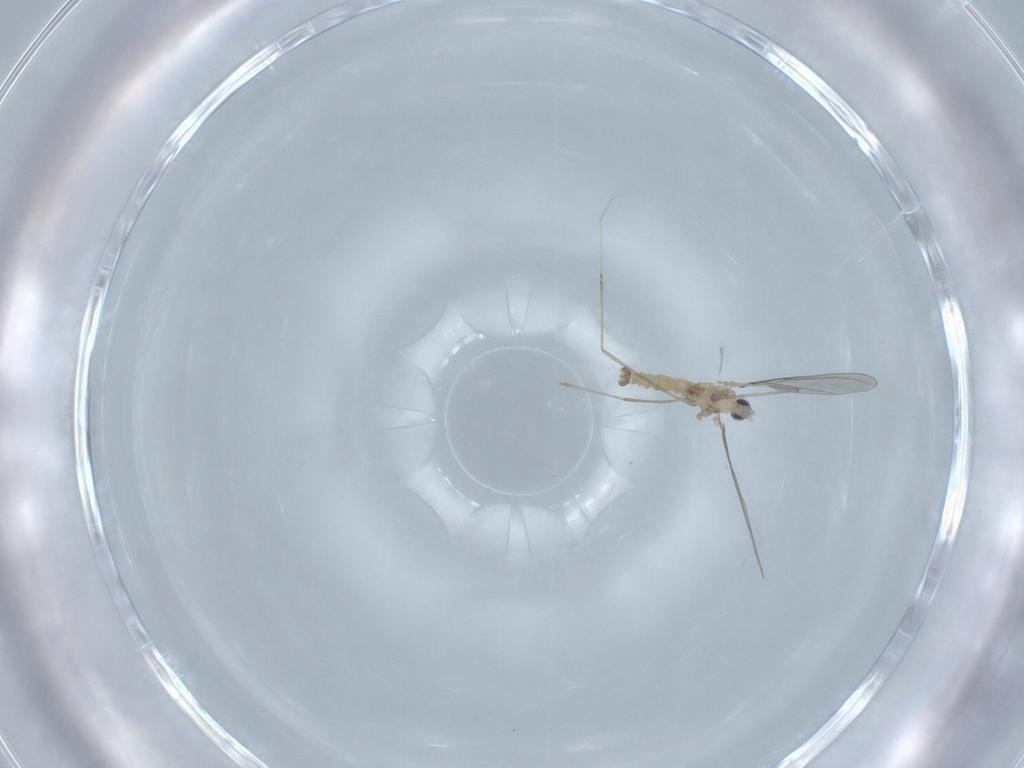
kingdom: Animalia
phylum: Arthropoda
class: Insecta
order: Diptera
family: Cecidomyiidae
